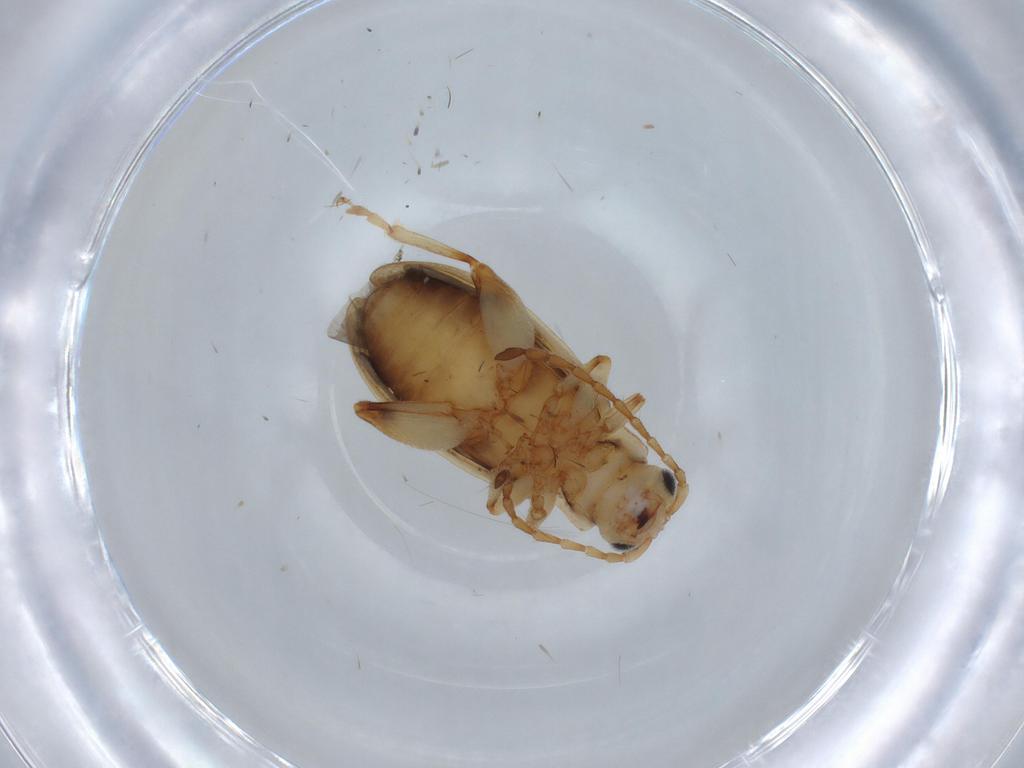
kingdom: Animalia
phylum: Arthropoda
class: Insecta
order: Coleoptera
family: Chrysomelidae
